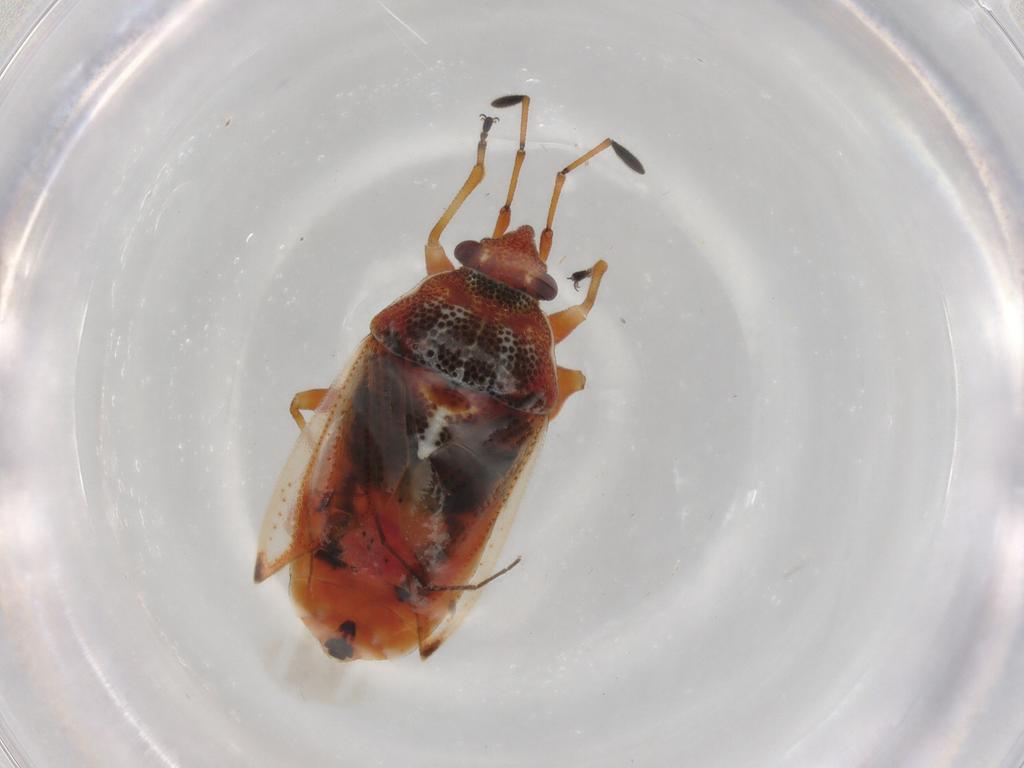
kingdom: Animalia
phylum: Arthropoda
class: Insecta
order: Hemiptera
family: Lygaeidae
